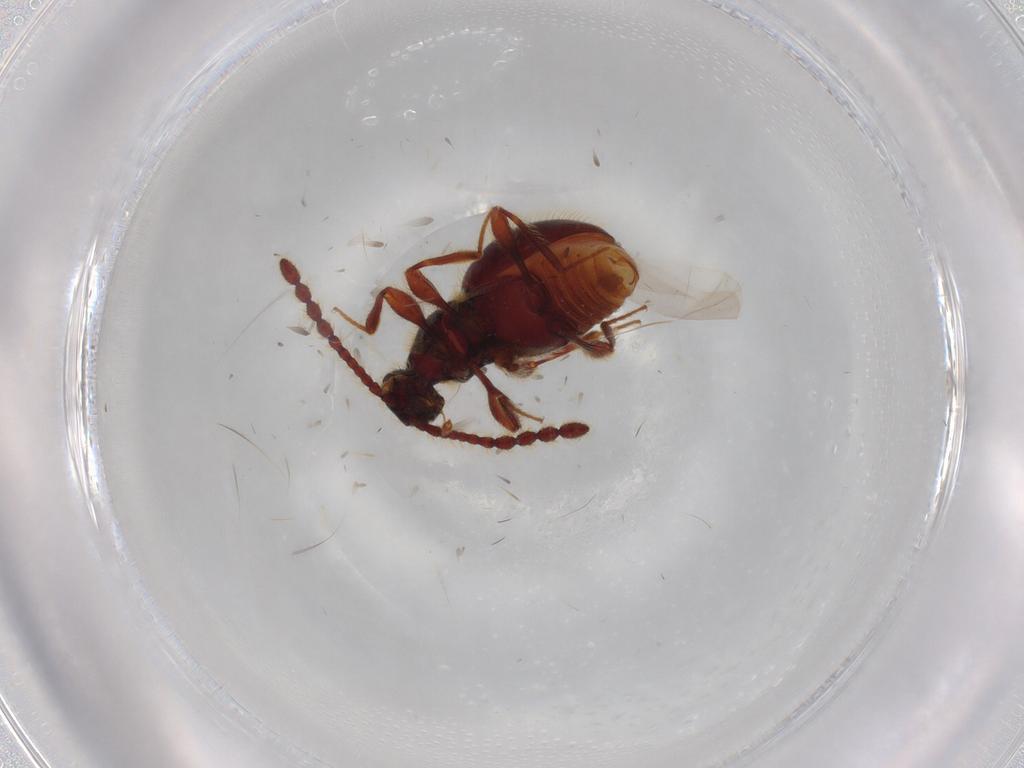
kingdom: Animalia
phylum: Arthropoda
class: Insecta
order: Coleoptera
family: Staphylinidae
